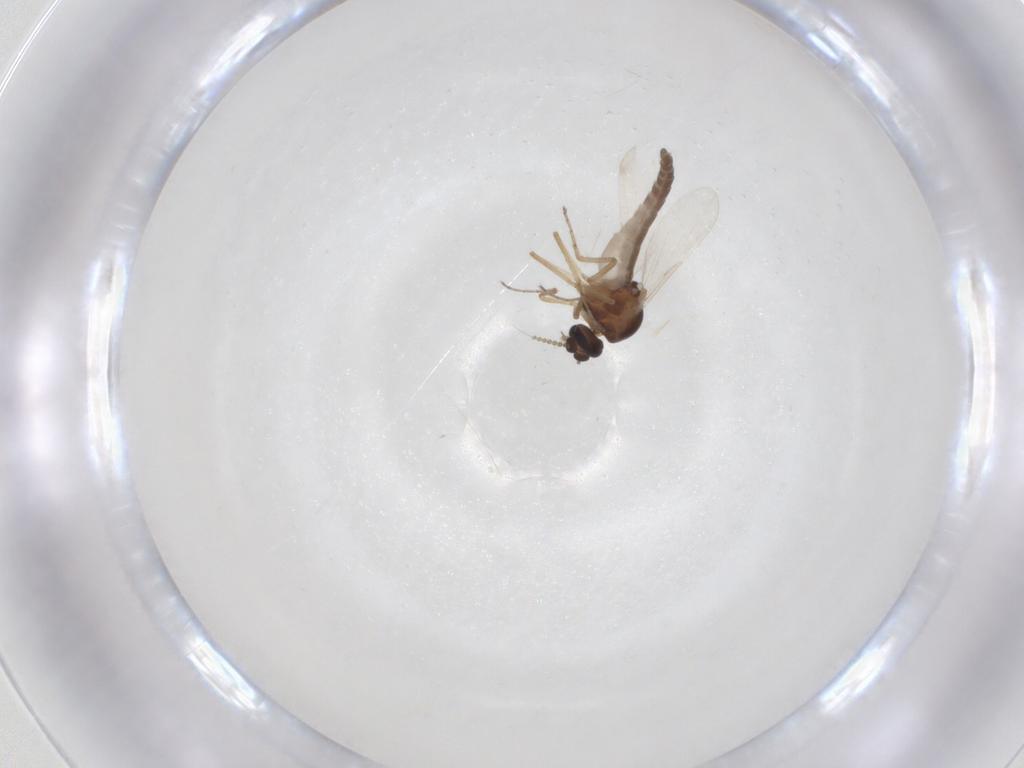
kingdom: Animalia
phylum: Arthropoda
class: Insecta
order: Diptera
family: Ceratopogonidae
